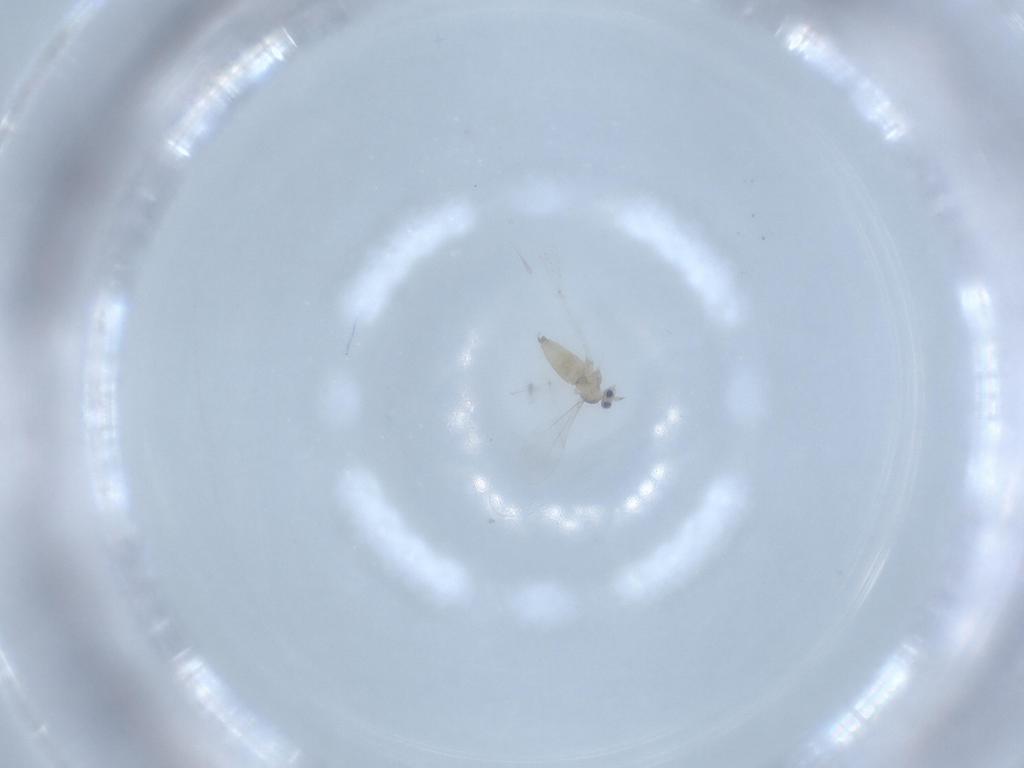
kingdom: Animalia
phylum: Arthropoda
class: Insecta
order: Diptera
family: Cecidomyiidae
